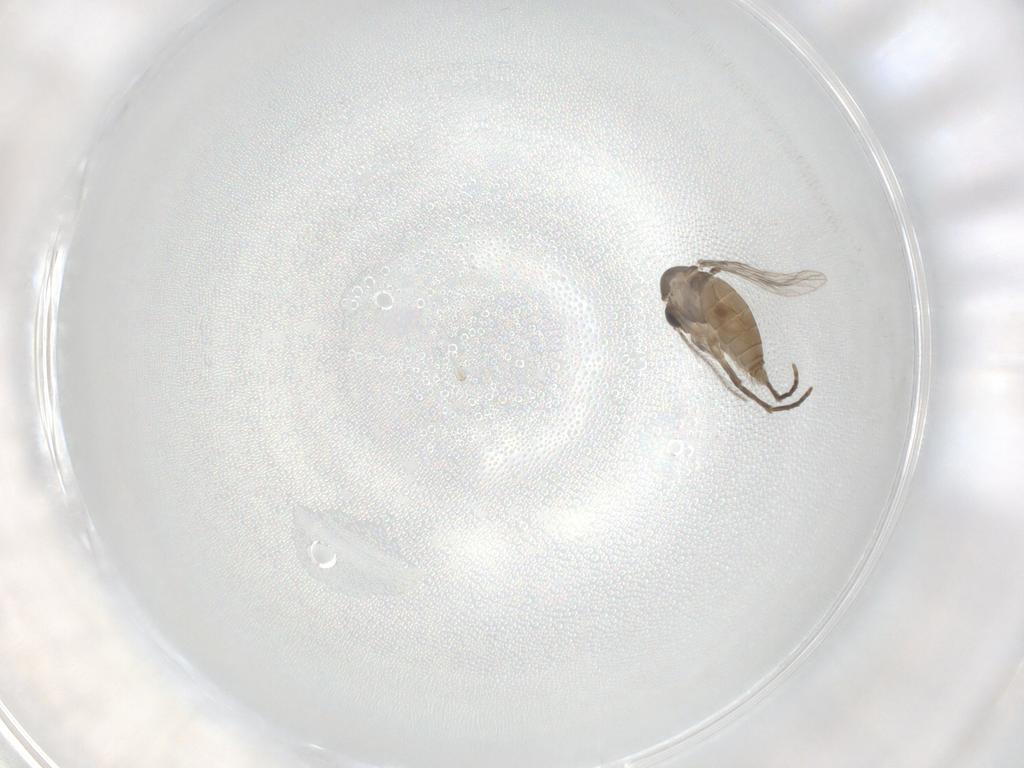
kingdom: Animalia
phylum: Arthropoda
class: Insecta
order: Diptera
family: Psychodidae
